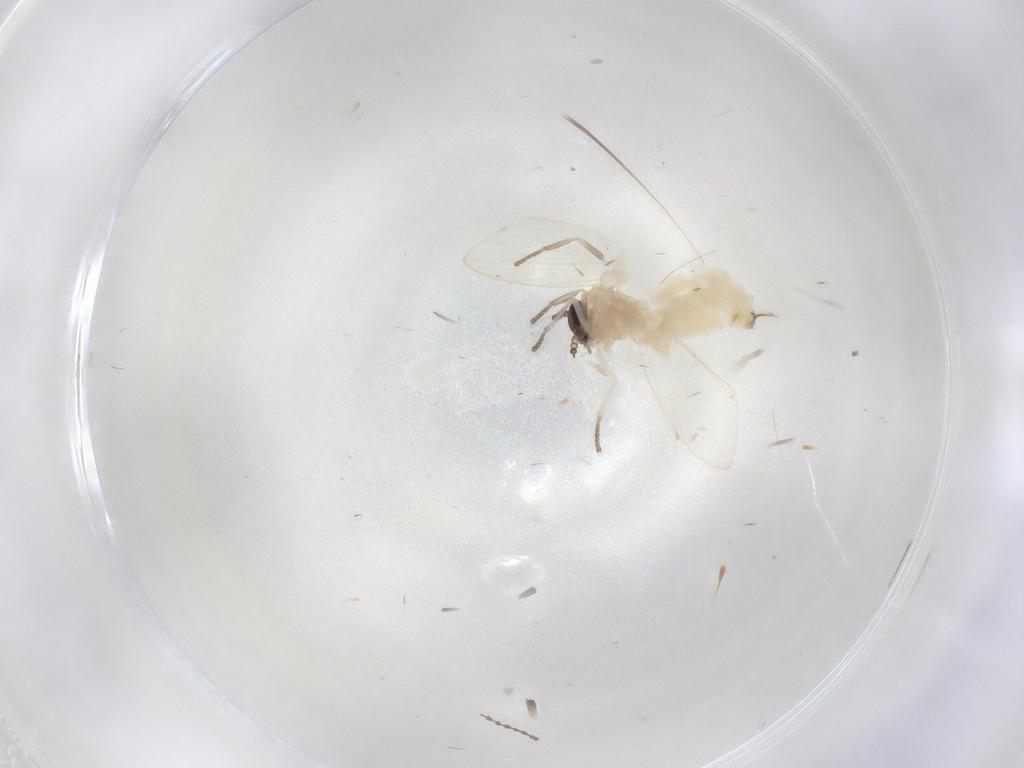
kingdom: Animalia
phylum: Arthropoda
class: Insecta
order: Diptera
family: Psychodidae
